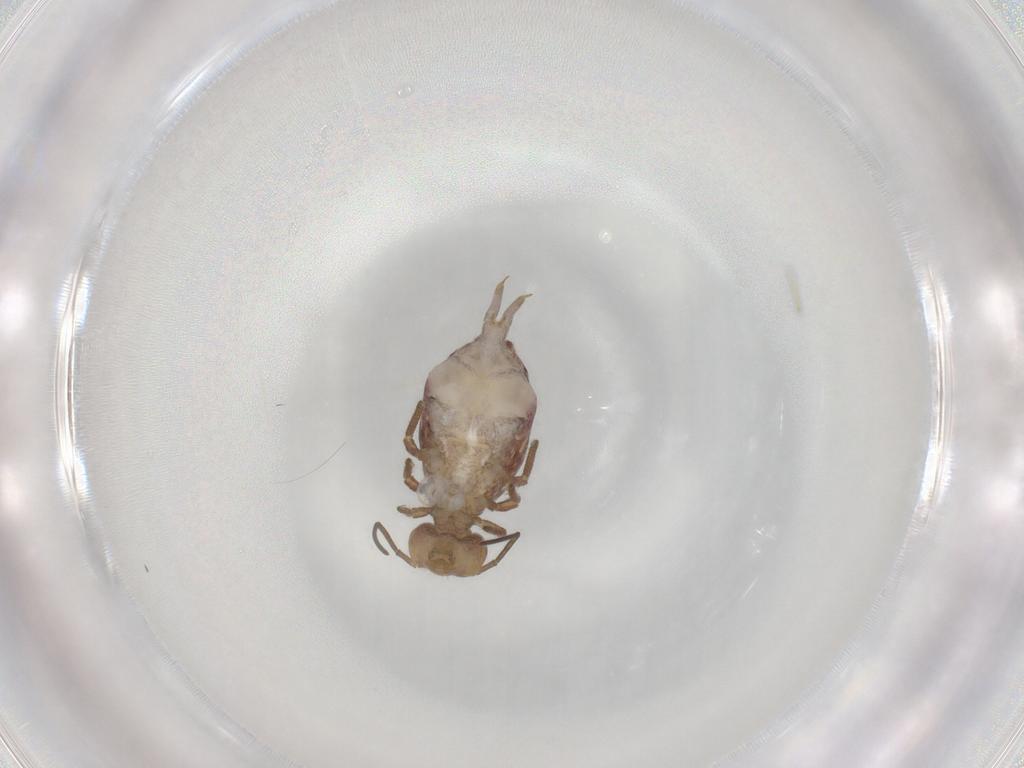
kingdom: Animalia
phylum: Arthropoda
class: Collembola
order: Symphypleona
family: Sminthuridae
